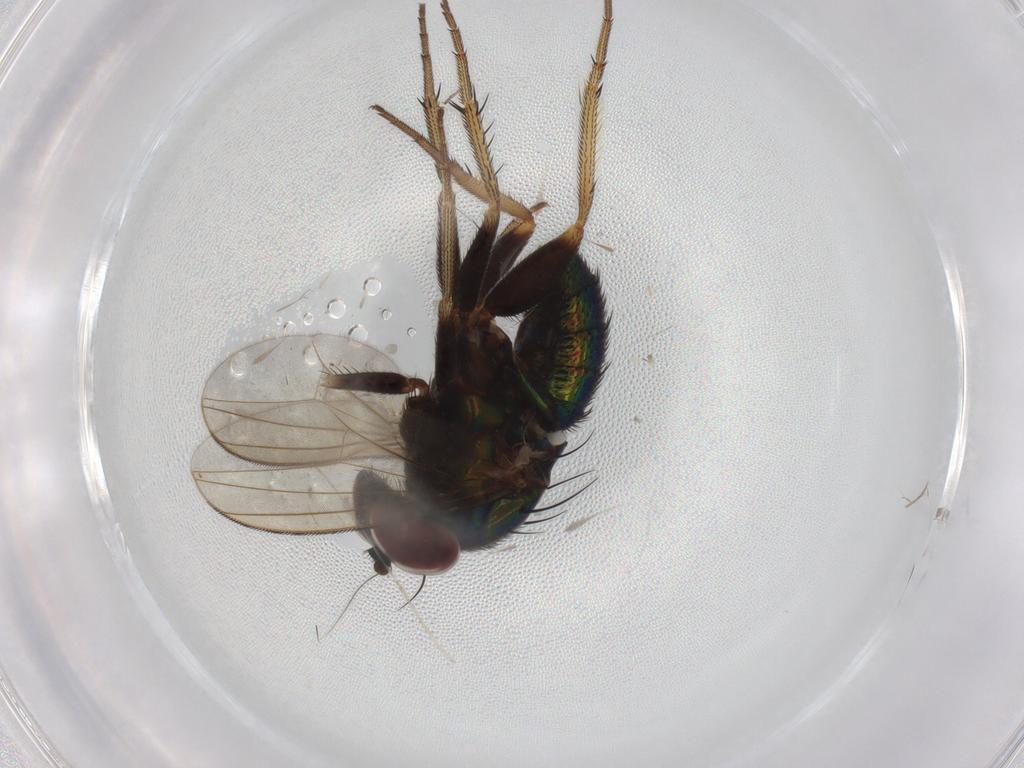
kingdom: Animalia
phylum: Arthropoda
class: Insecta
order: Diptera
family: Dolichopodidae
